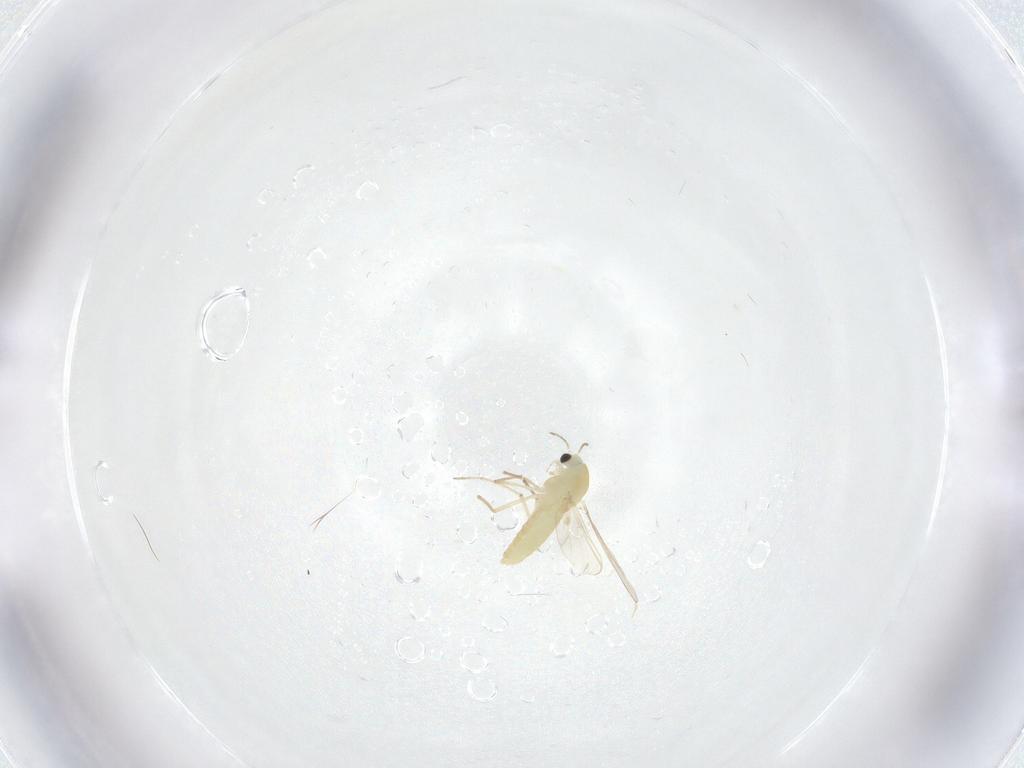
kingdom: Animalia
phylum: Arthropoda
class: Insecta
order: Diptera
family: Chironomidae
